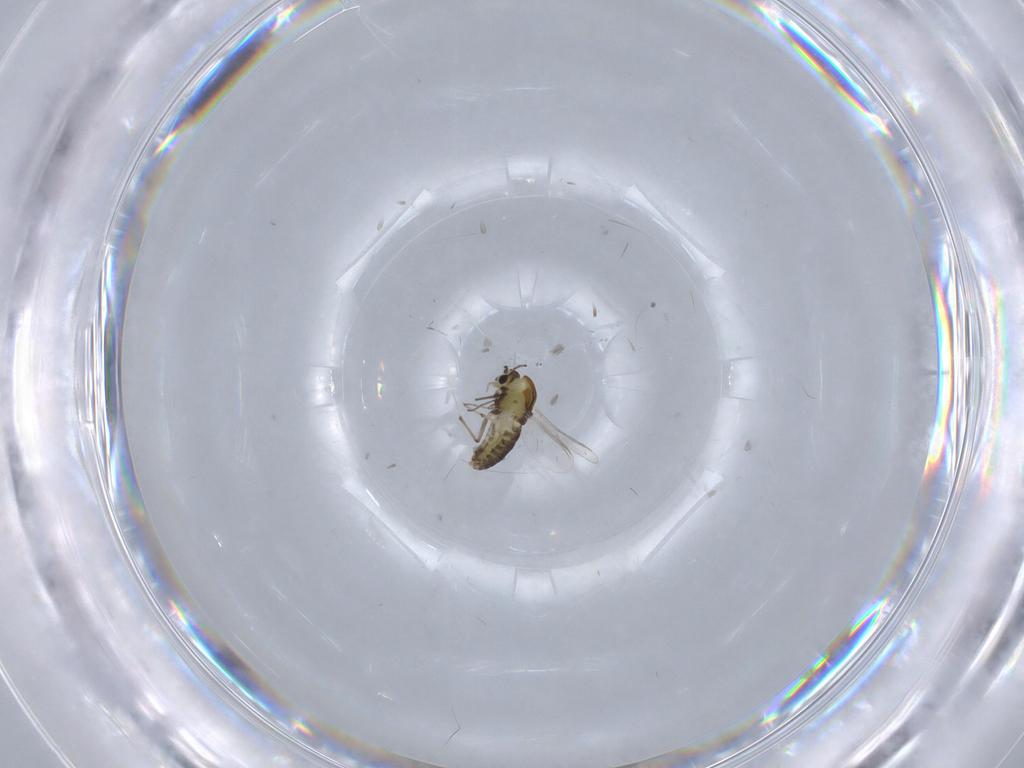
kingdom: Animalia
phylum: Arthropoda
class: Insecta
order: Diptera
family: Chironomidae
